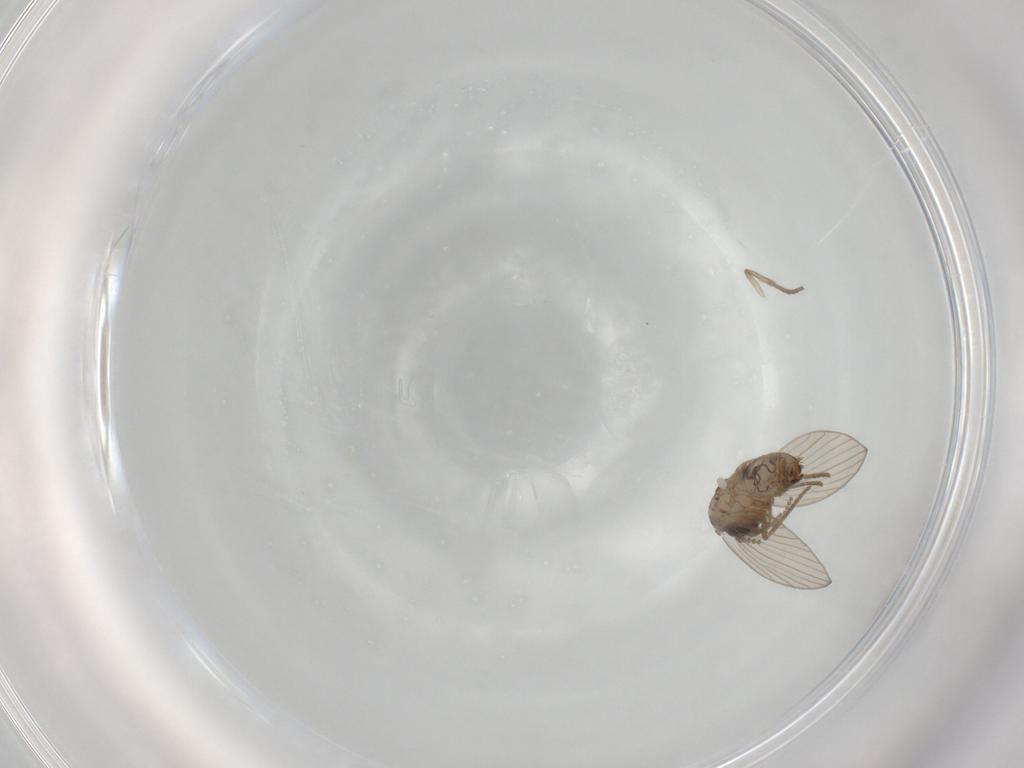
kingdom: Animalia
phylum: Arthropoda
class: Insecta
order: Diptera
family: Psychodidae
